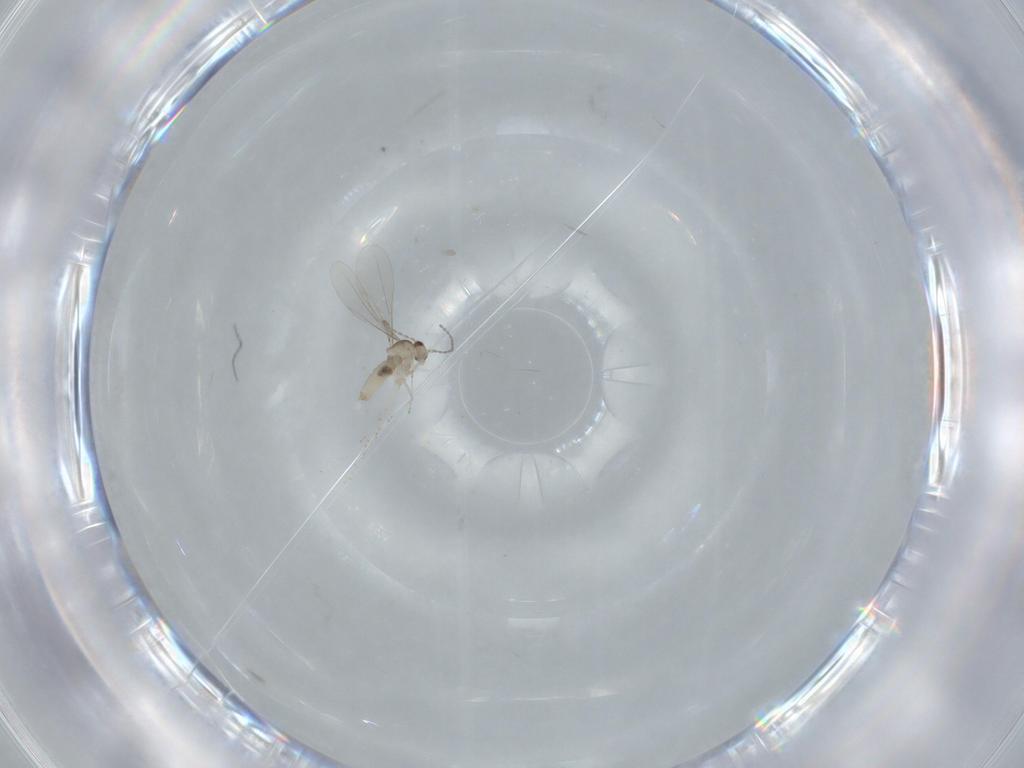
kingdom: Animalia
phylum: Arthropoda
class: Insecta
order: Diptera
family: Cecidomyiidae
